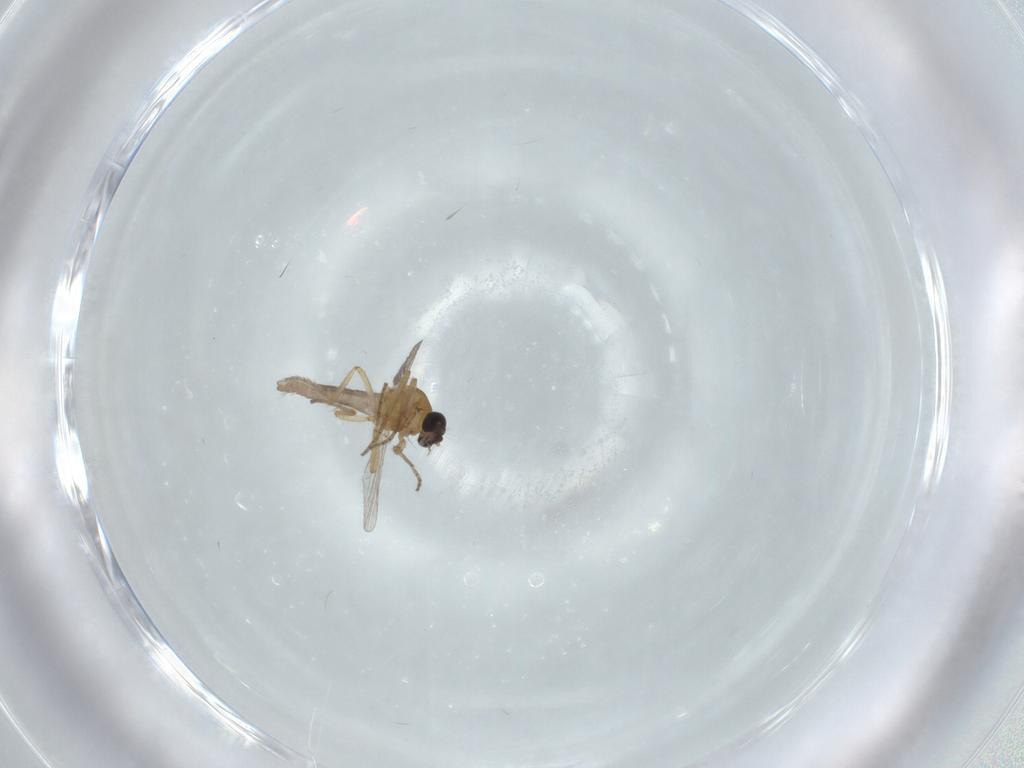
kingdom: Animalia
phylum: Arthropoda
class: Insecta
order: Diptera
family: Ceratopogonidae
